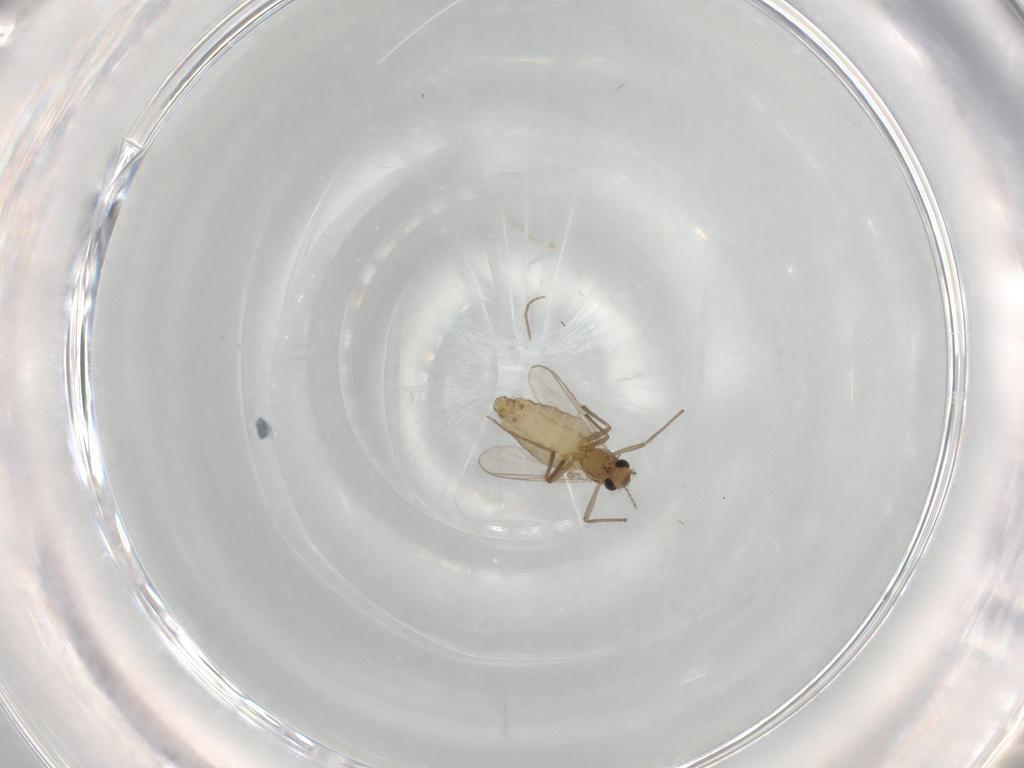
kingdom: Animalia
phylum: Arthropoda
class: Insecta
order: Diptera
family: Chironomidae
